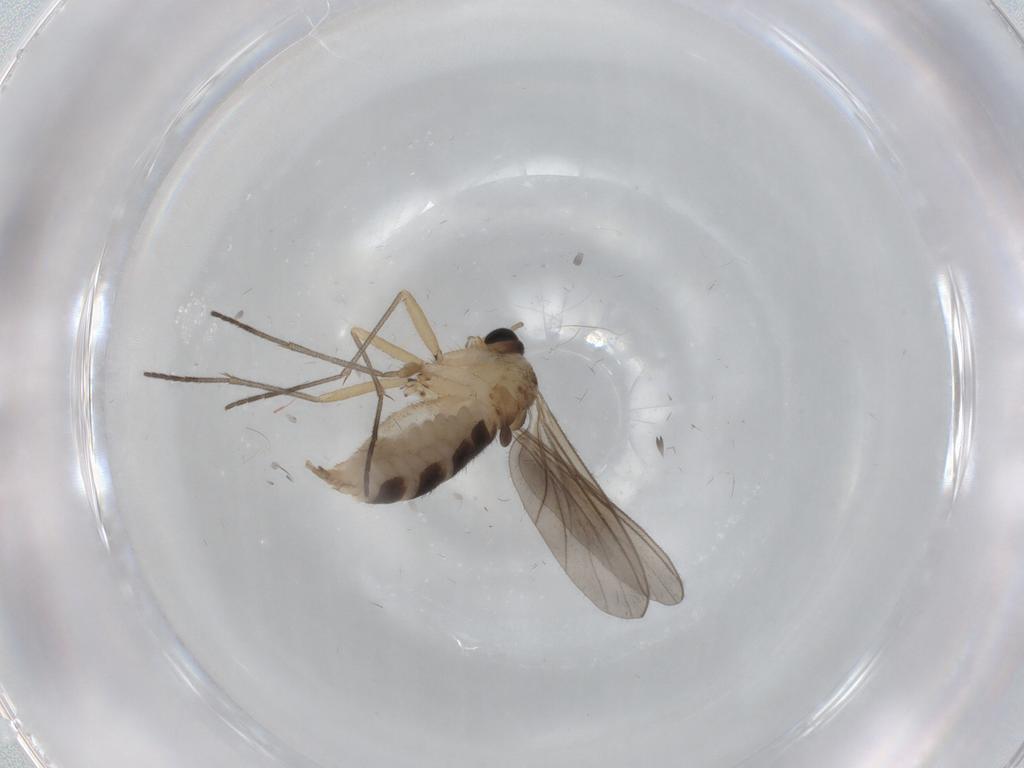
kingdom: Animalia
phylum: Arthropoda
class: Insecta
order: Diptera
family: Sciaridae
